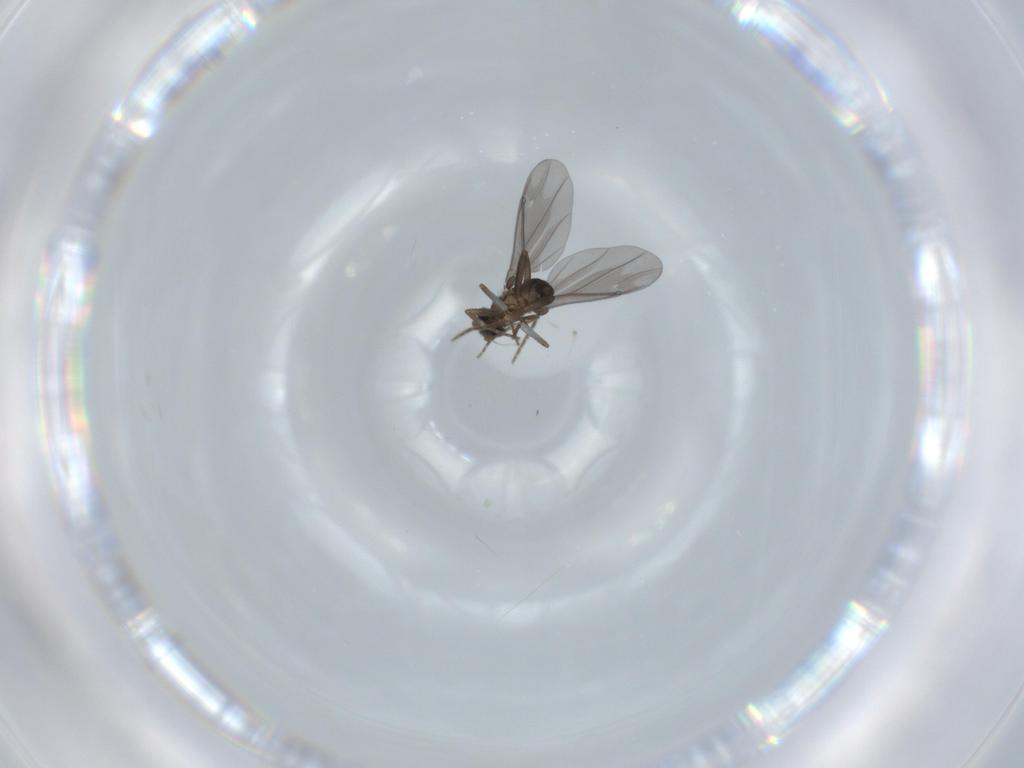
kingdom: Animalia
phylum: Arthropoda
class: Insecta
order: Diptera
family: Phoridae
